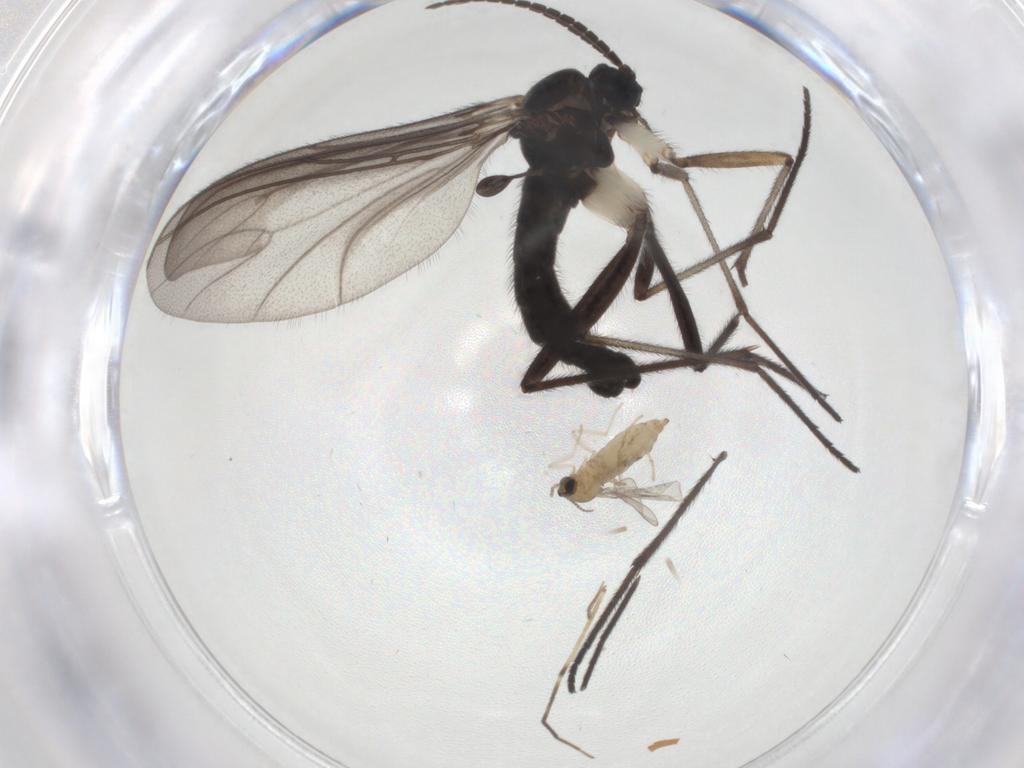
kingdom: Animalia
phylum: Arthropoda
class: Insecta
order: Diptera
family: Sciaridae
